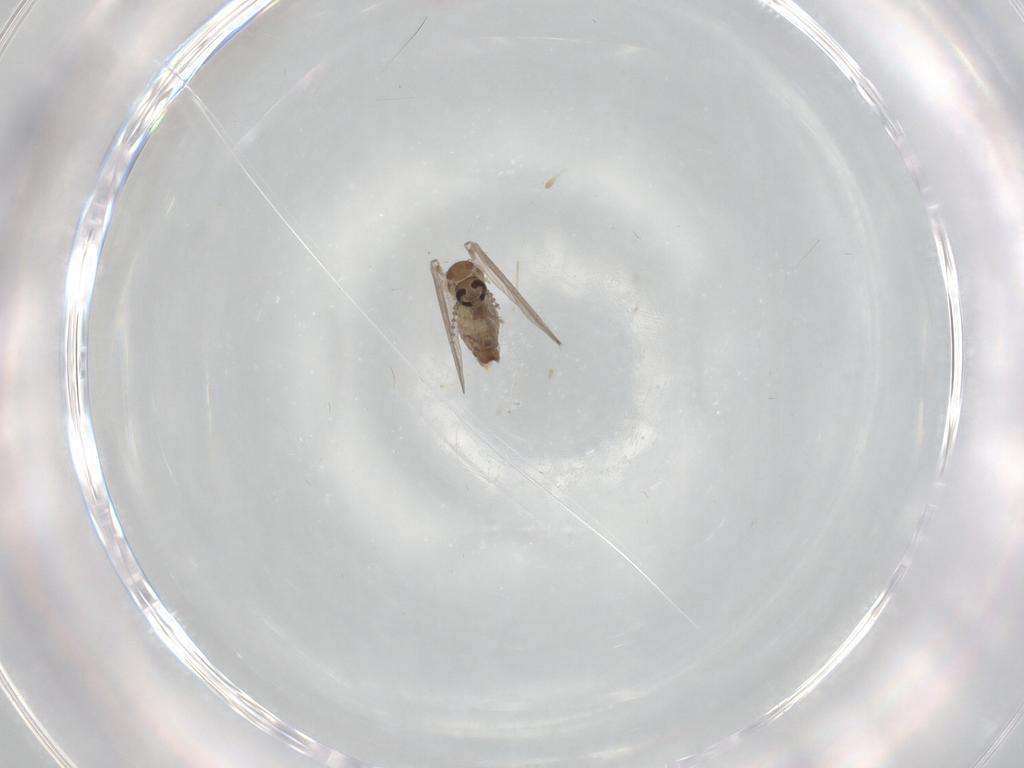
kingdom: Animalia
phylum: Arthropoda
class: Insecta
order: Diptera
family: Psychodidae
